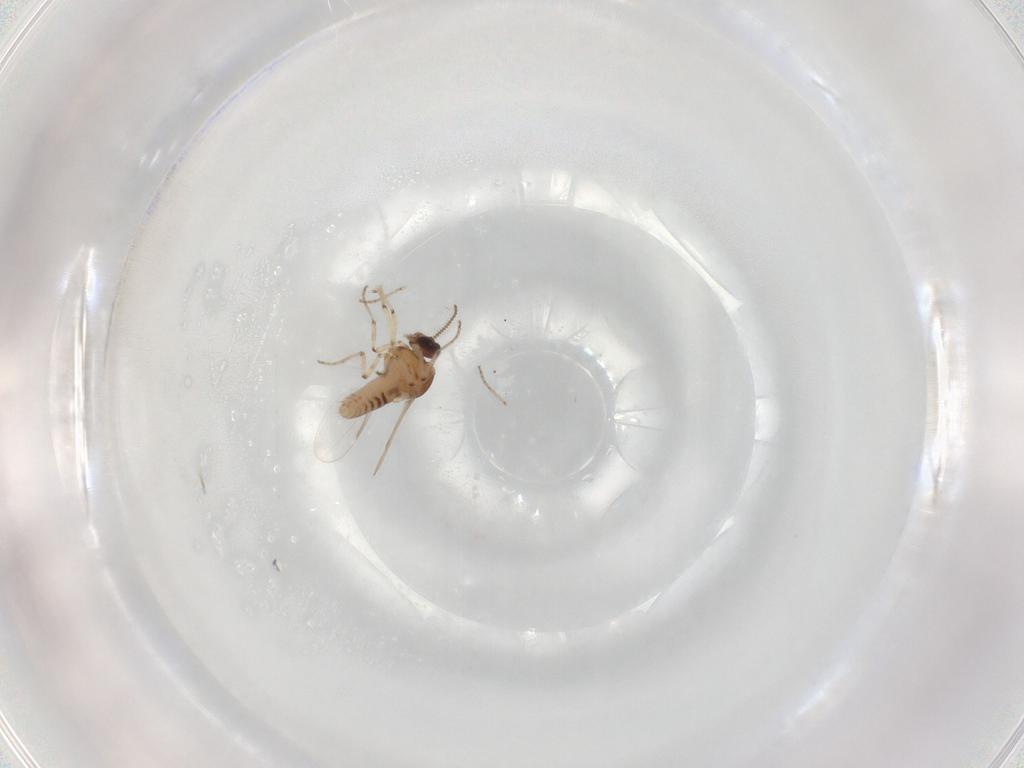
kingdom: Animalia
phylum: Arthropoda
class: Insecta
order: Diptera
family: Ceratopogonidae
